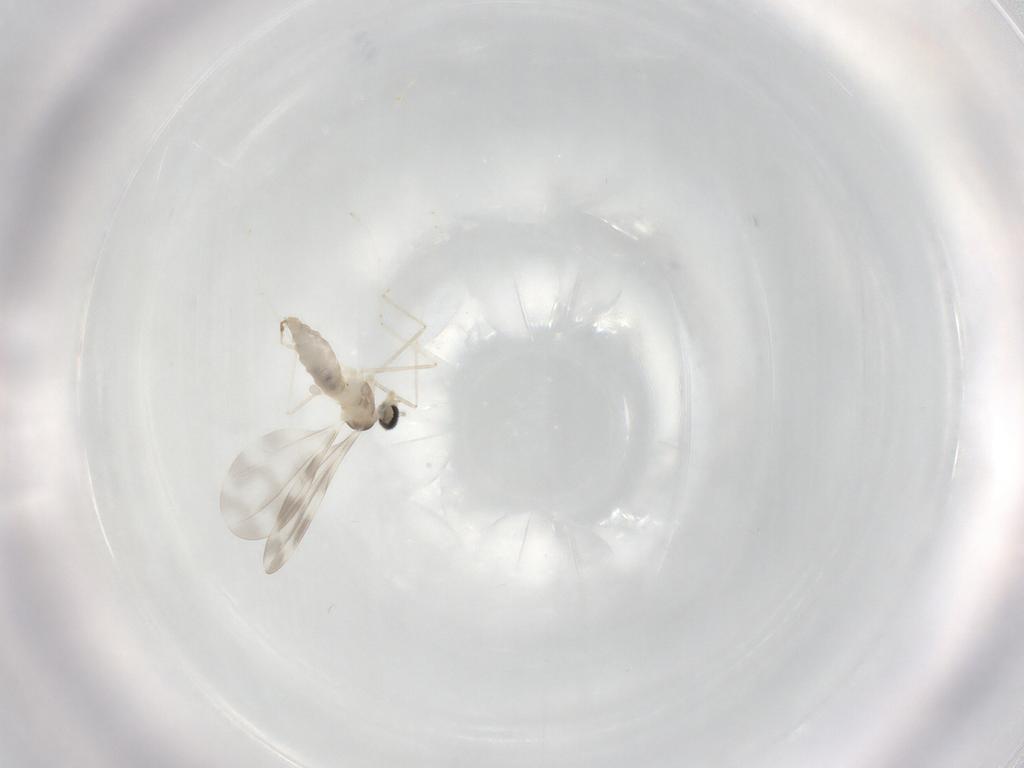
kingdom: Animalia
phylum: Arthropoda
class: Insecta
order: Diptera
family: Cecidomyiidae
